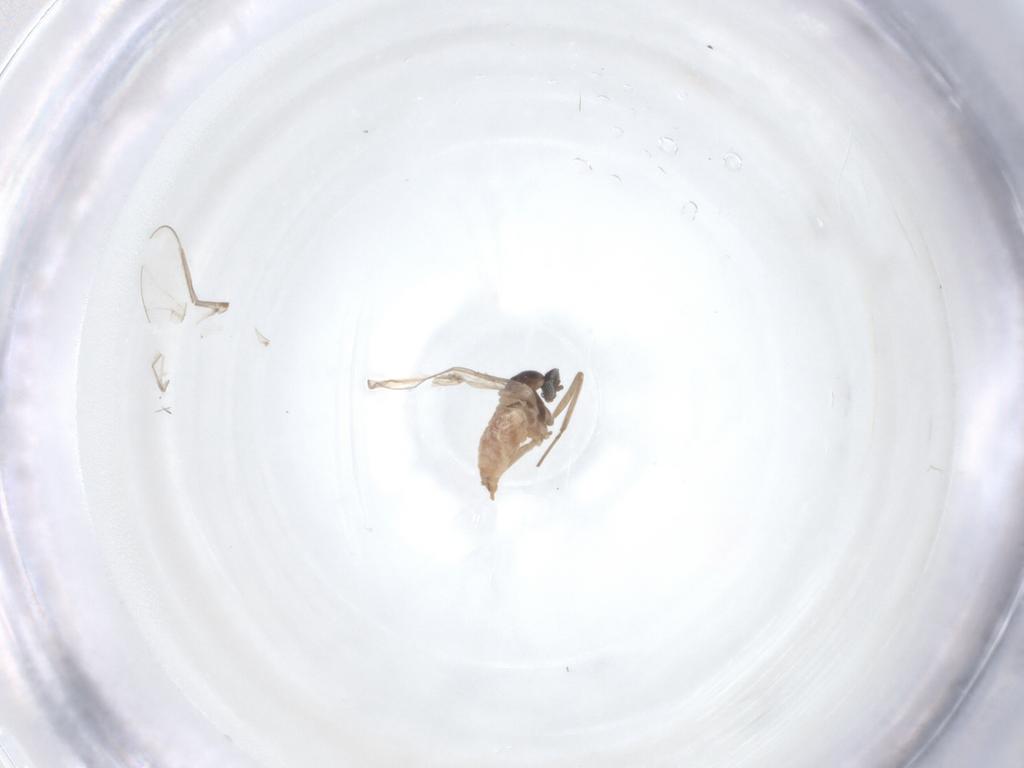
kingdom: Animalia
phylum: Arthropoda
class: Insecta
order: Diptera
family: Cecidomyiidae
